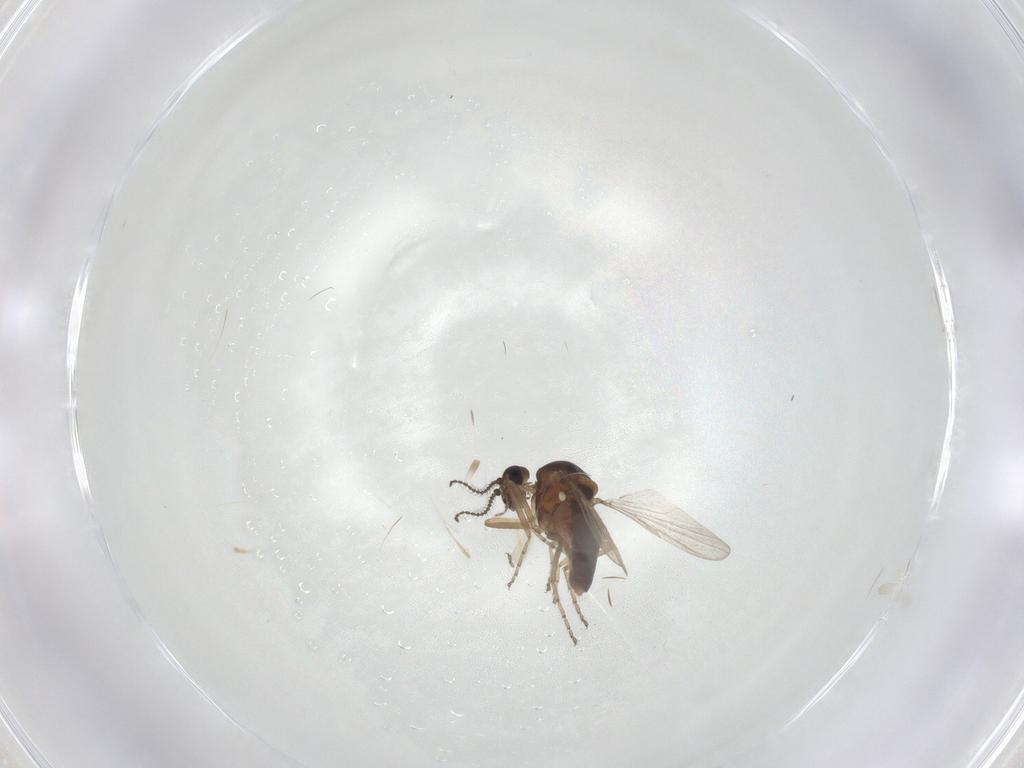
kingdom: Animalia
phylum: Arthropoda
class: Insecta
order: Diptera
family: Ceratopogonidae
